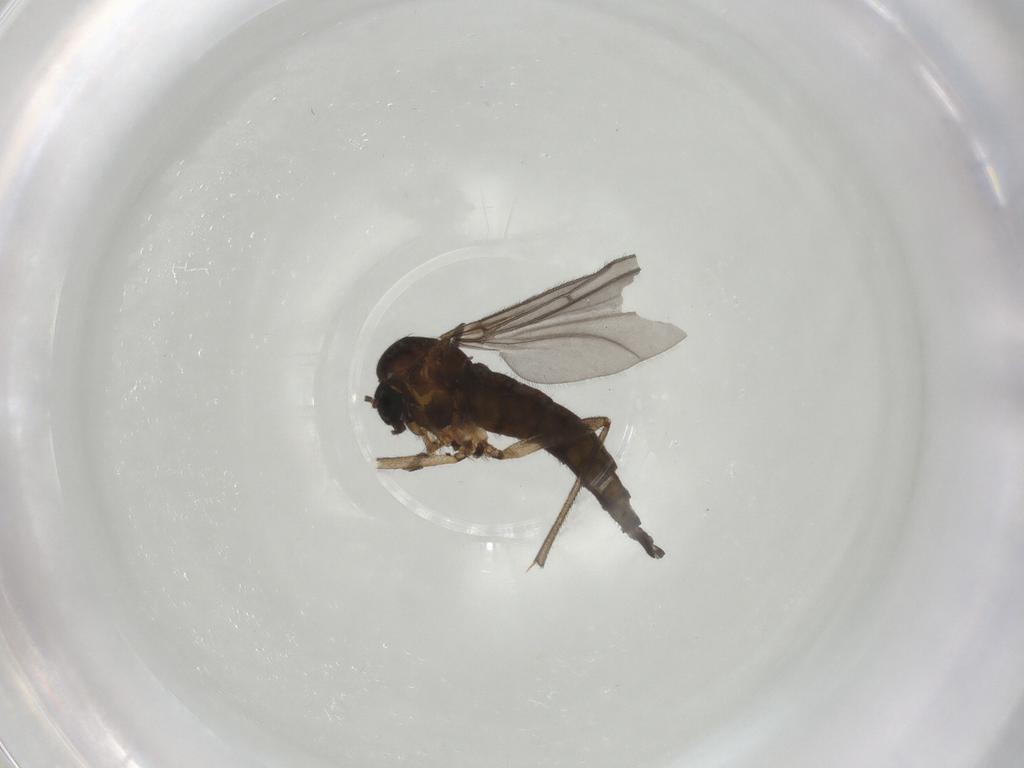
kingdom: Animalia
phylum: Arthropoda
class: Insecta
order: Diptera
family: Sciaridae
